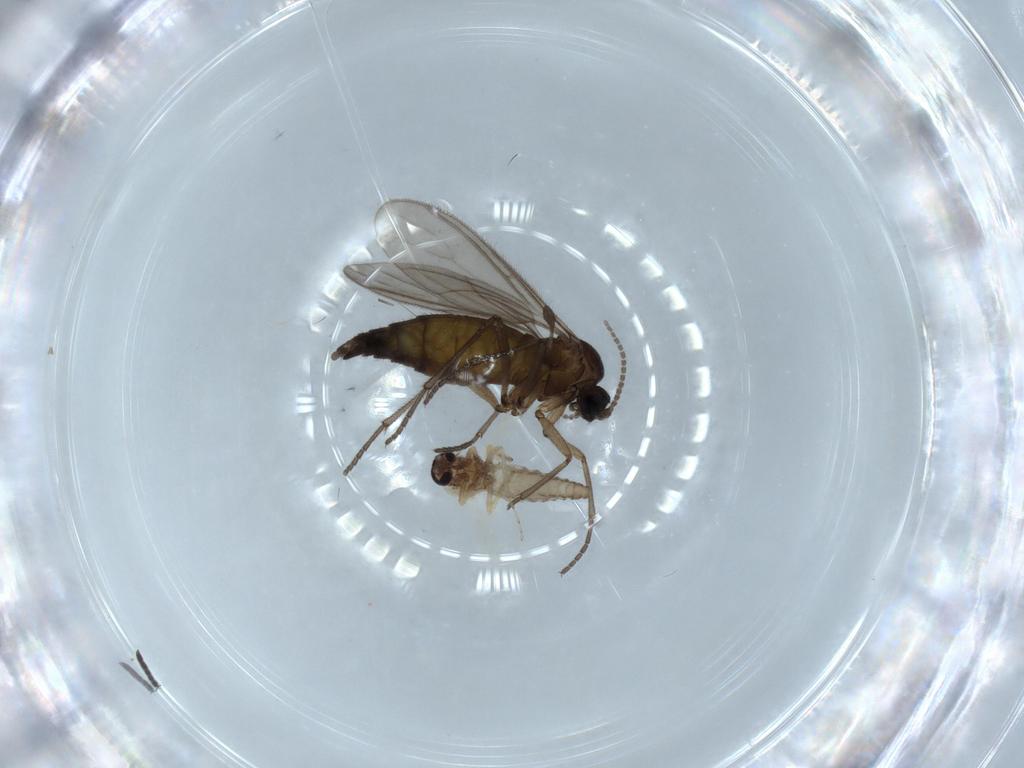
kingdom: Animalia
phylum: Arthropoda
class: Insecta
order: Diptera
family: Sciaridae
